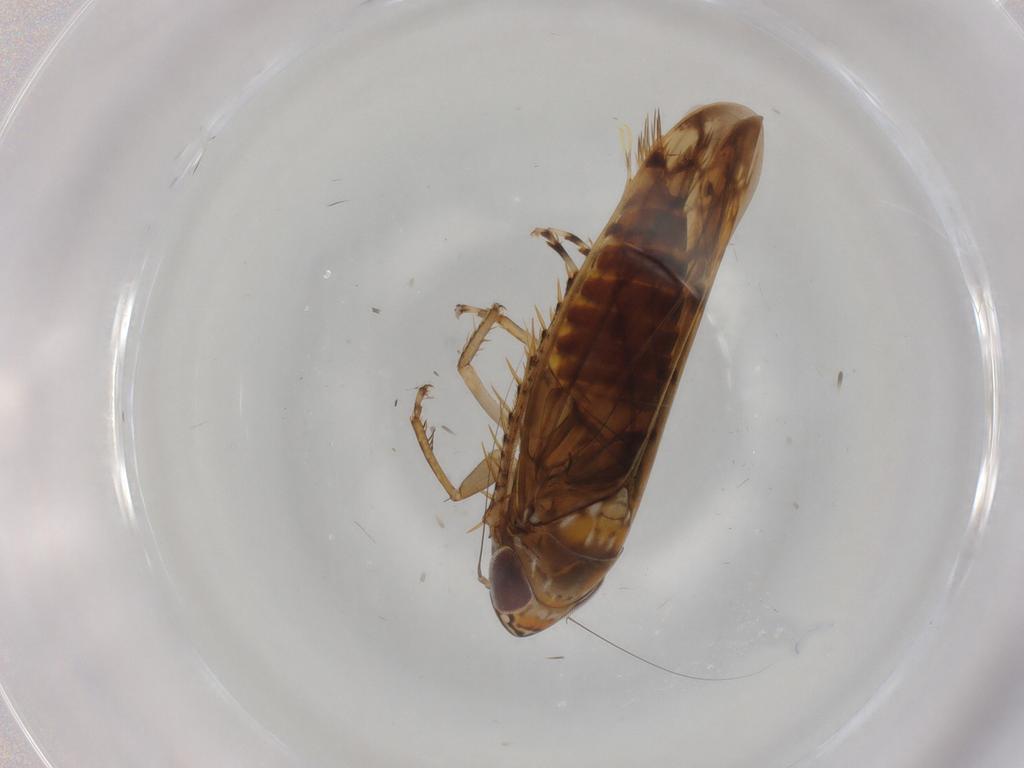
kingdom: Animalia
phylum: Arthropoda
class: Insecta
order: Hemiptera
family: Cicadellidae
